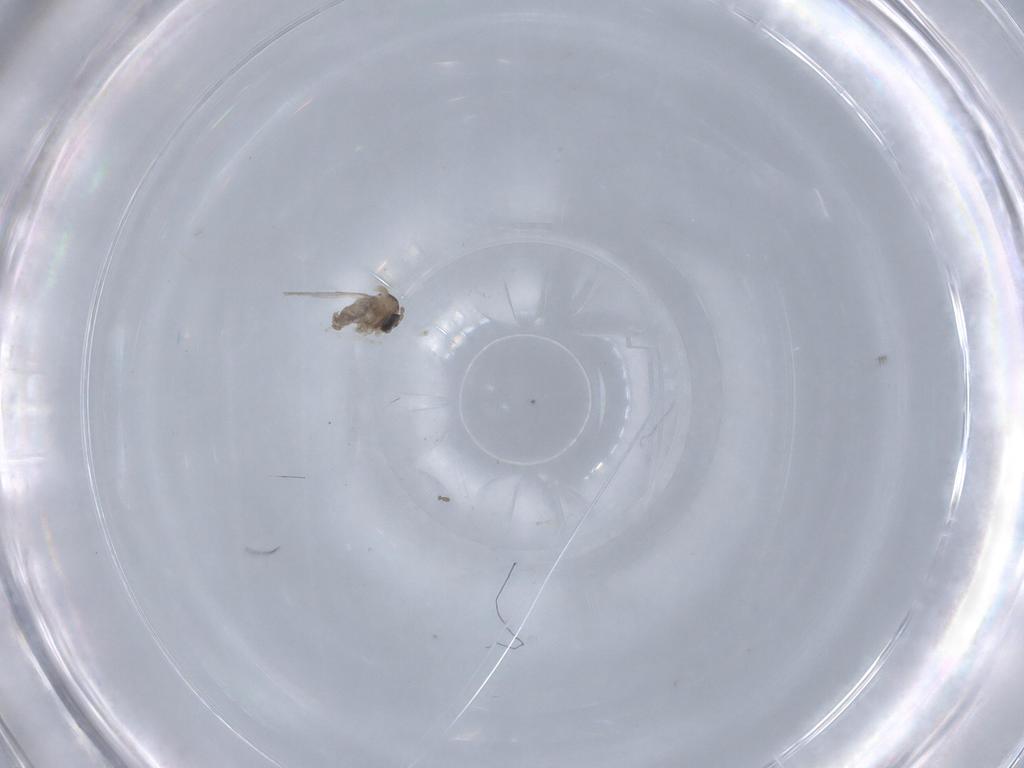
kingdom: Animalia
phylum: Arthropoda
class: Insecta
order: Diptera
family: Cecidomyiidae
